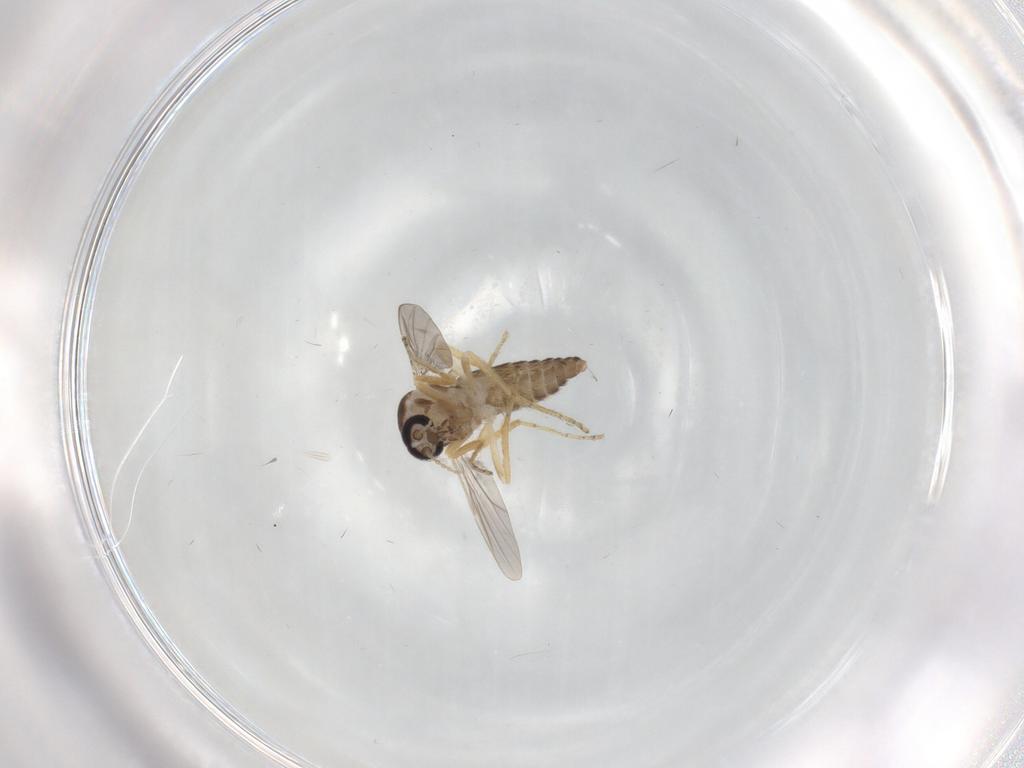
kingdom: Animalia
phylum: Arthropoda
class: Insecta
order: Diptera
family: Ceratopogonidae
